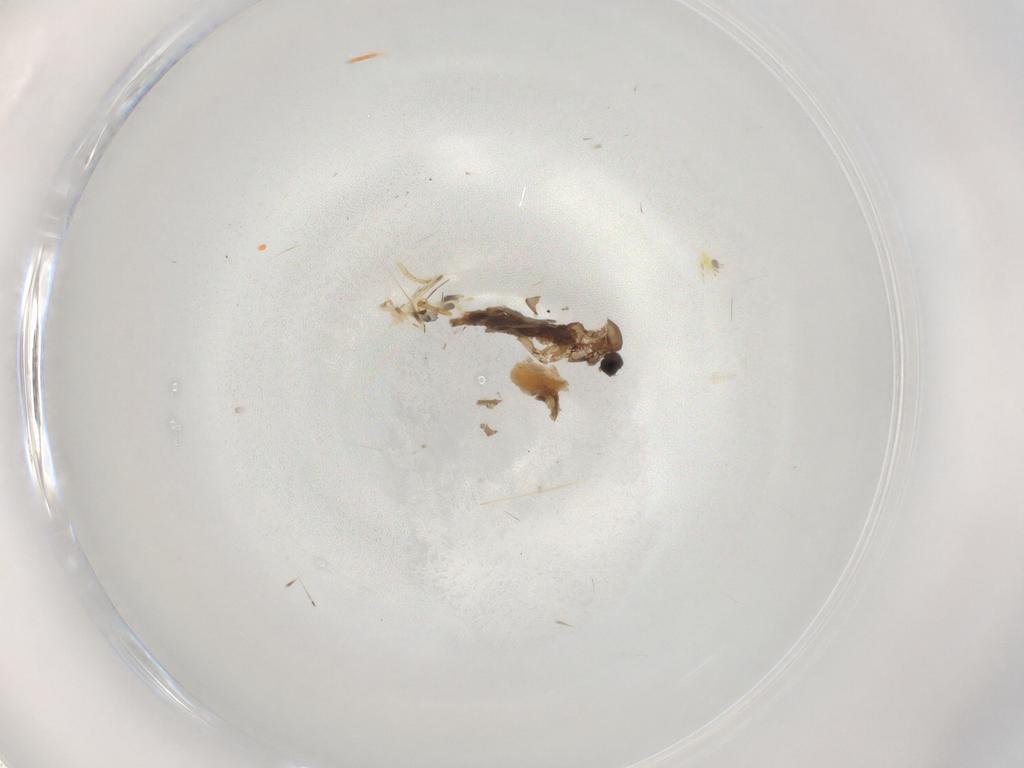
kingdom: Animalia
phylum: Arthropoda
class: Insecta
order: Diptera
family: Chironomidae
